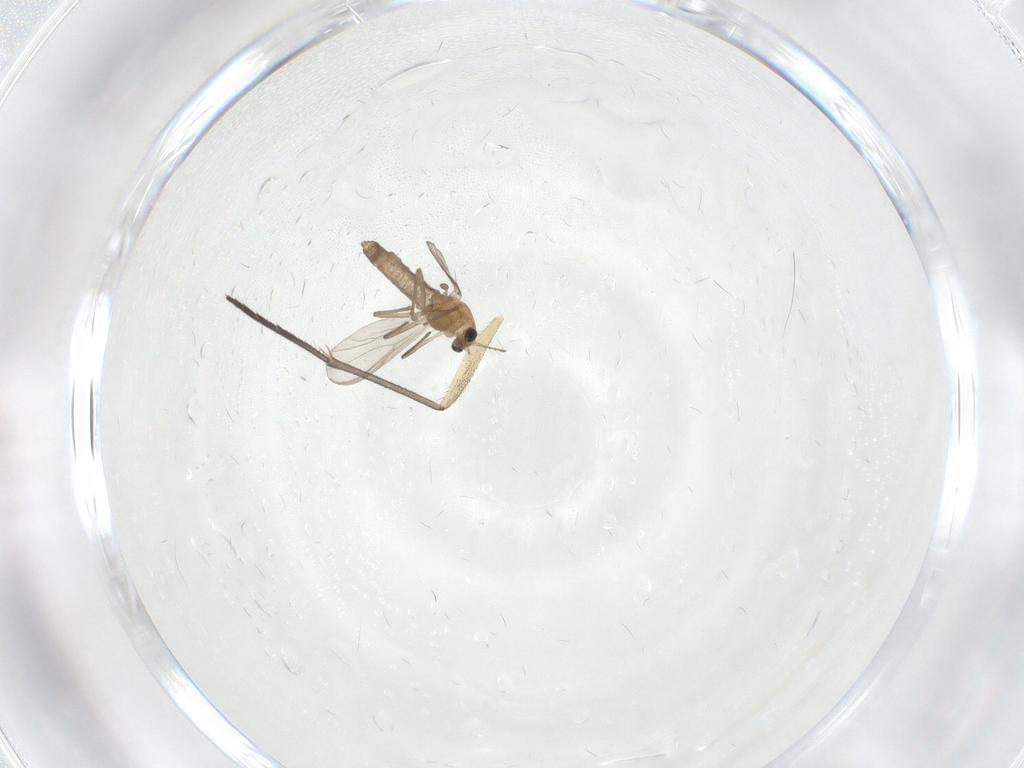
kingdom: Animalia
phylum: Arthropoda
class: Insecta
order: Diptera
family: Chironomidae
